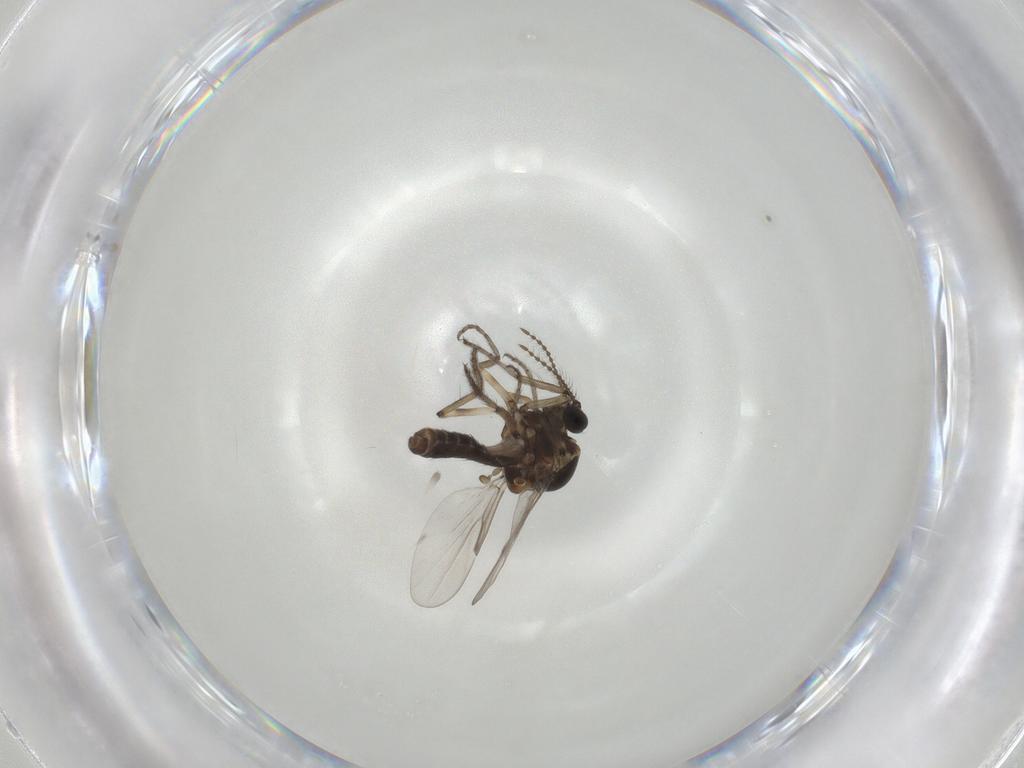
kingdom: Animalia
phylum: Arthropoda
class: Insecta
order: Diptera
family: Ceratopogonidae
